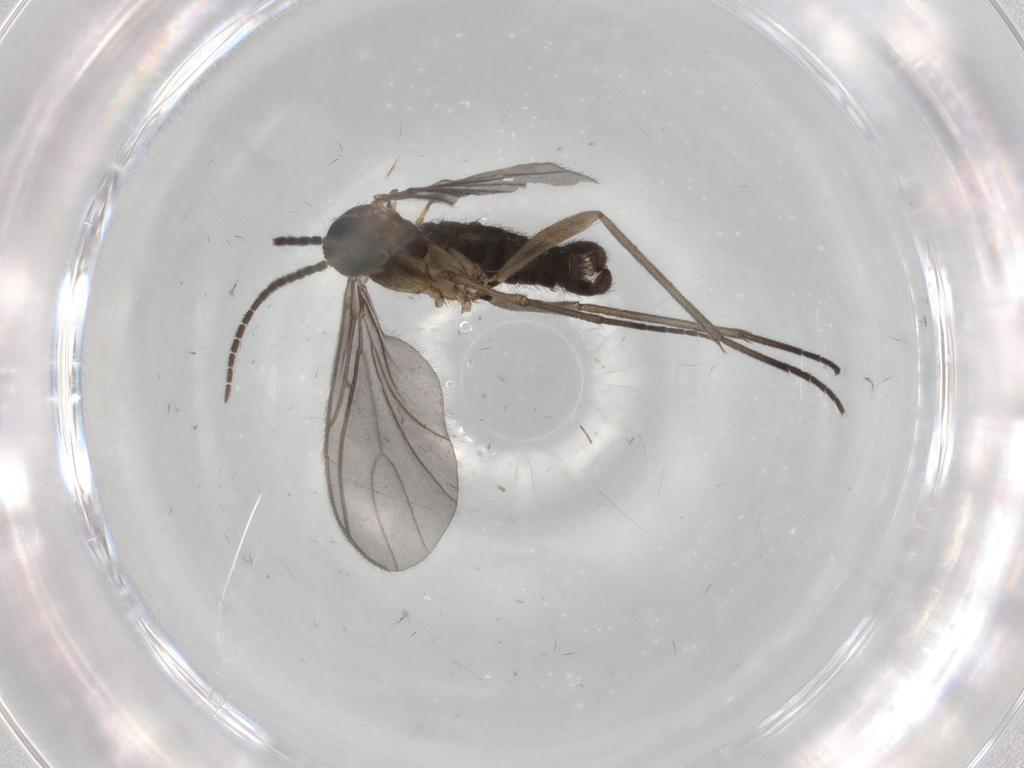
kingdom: Animalia
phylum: Arthropoda
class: Insecta
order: Diptera
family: Sciaridae
